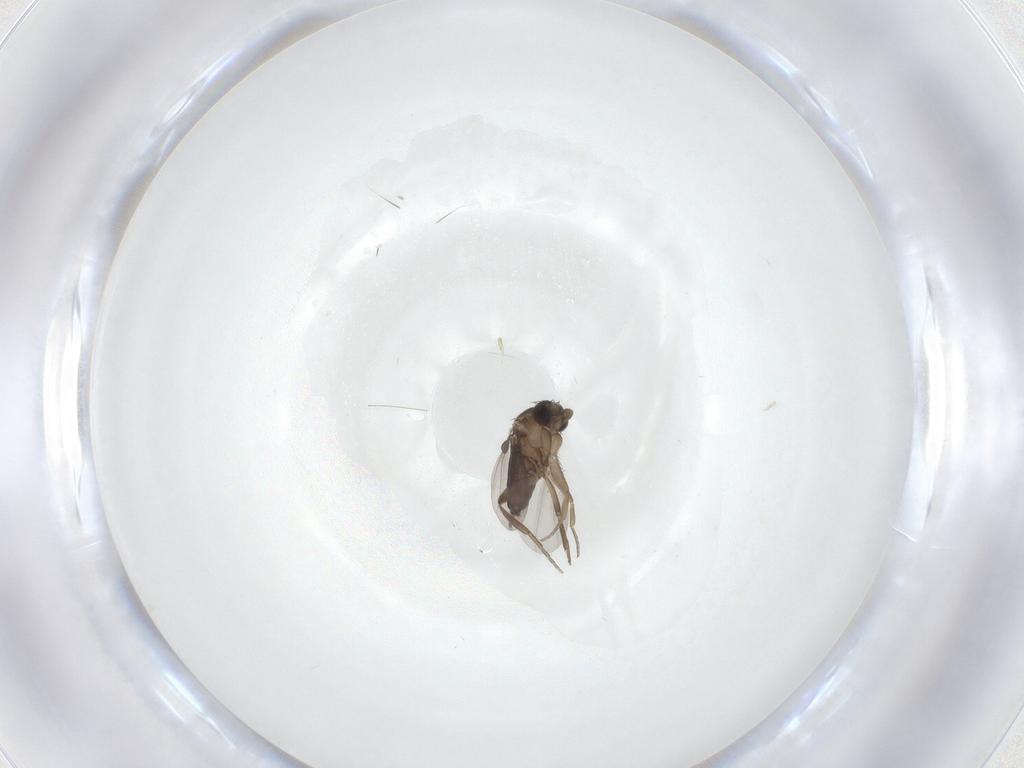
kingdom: Animalia
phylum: Arthropoda
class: Insecta
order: Diptera
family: Phoridae
